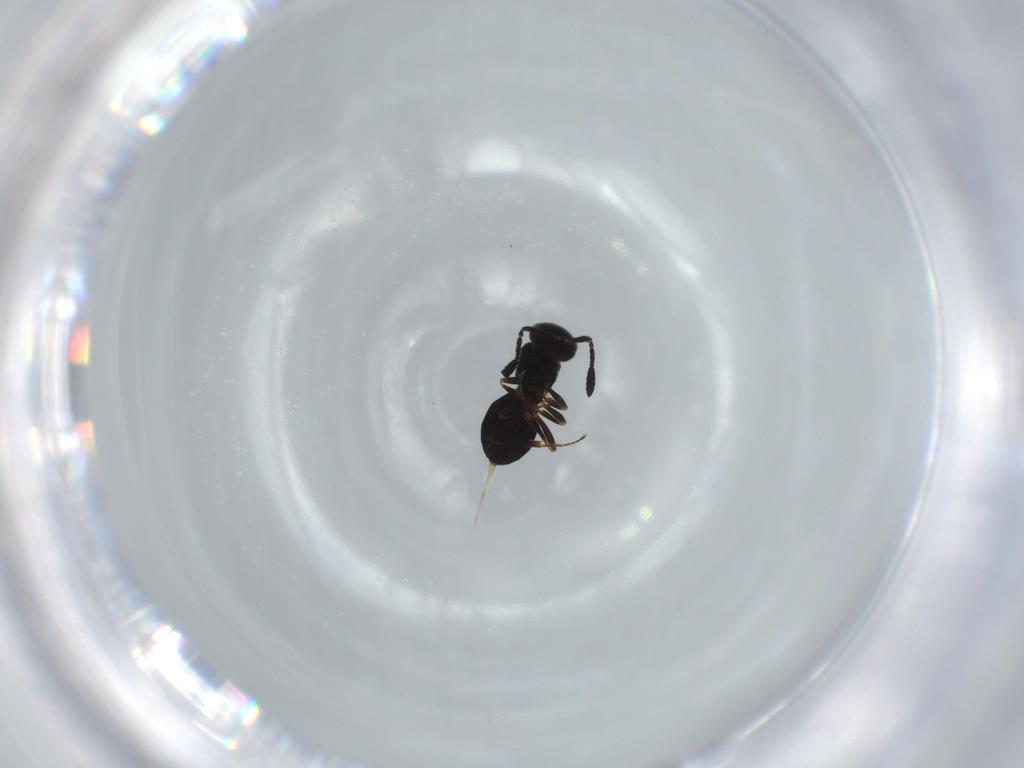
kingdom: Animalia
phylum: Arthropoda
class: Insecta
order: Hymenoptera
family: Scelionidae
